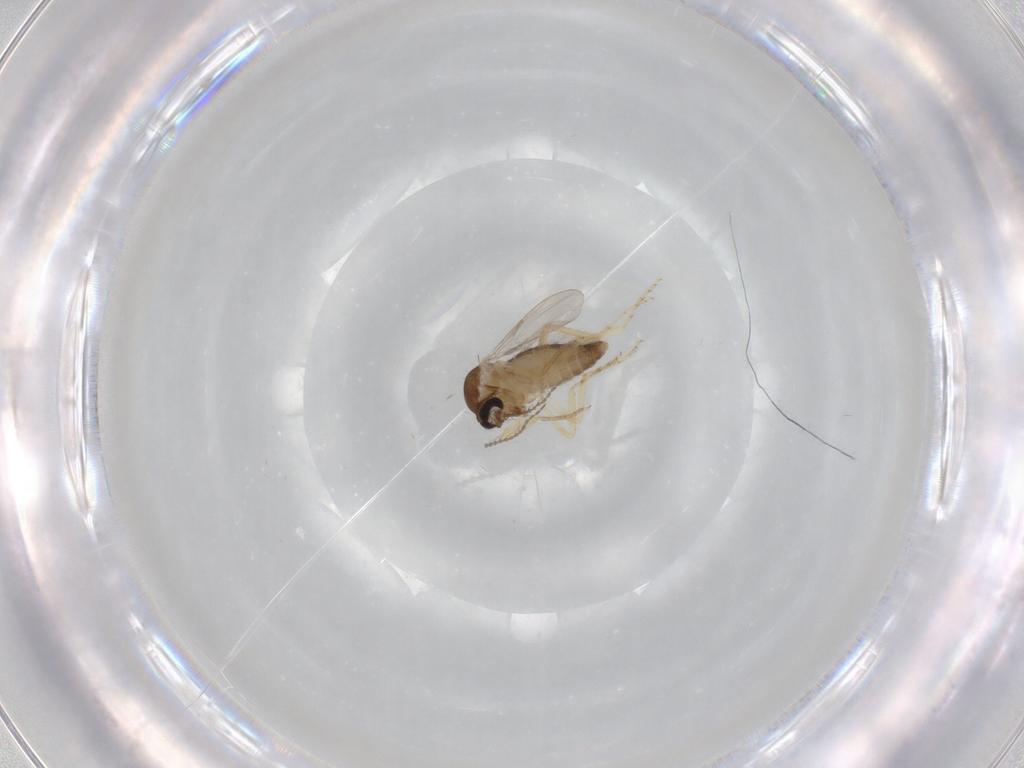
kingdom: Animalia
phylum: Arthropoda
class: Insecta
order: Diptera
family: Ceratopogonidae
